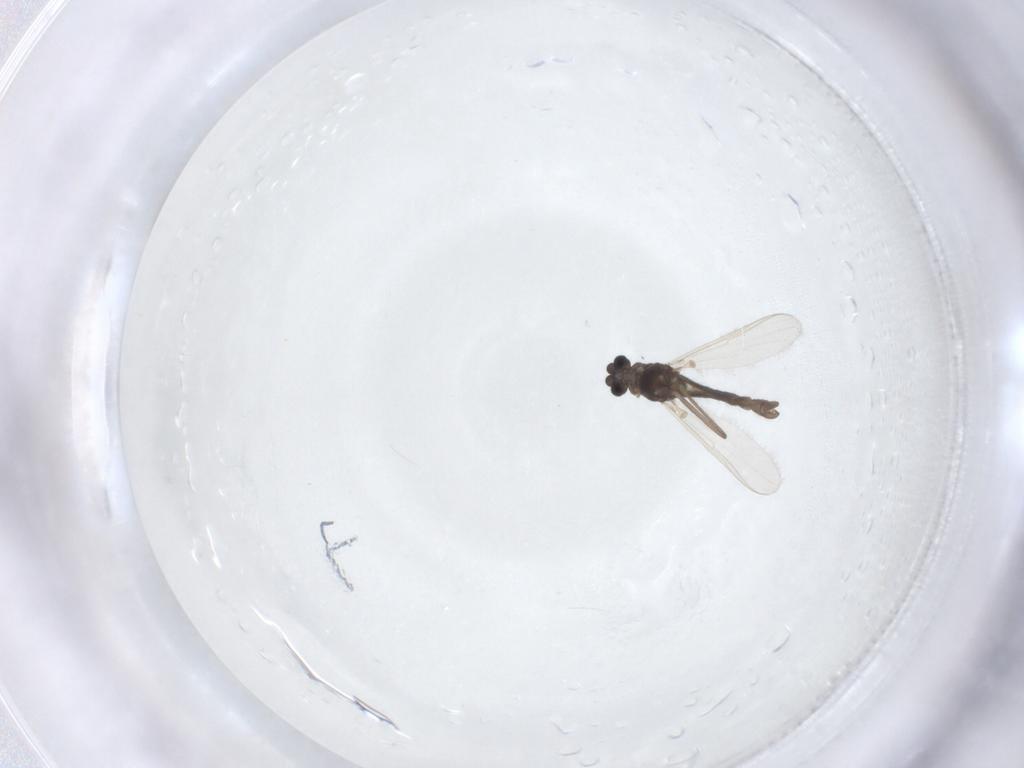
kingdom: Animalia
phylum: Arthropoda
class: Insecta
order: Diptera
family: Chironomidae
